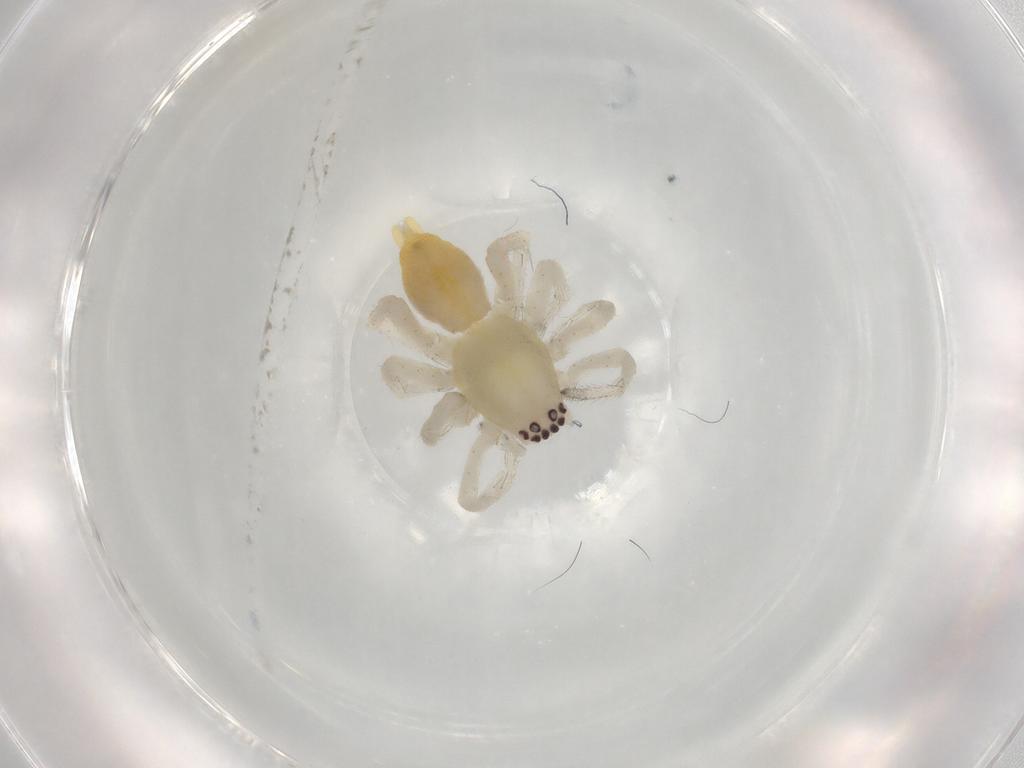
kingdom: Animalia
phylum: Arthropoda
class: Arachnida
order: Araneae
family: Clubionidae
